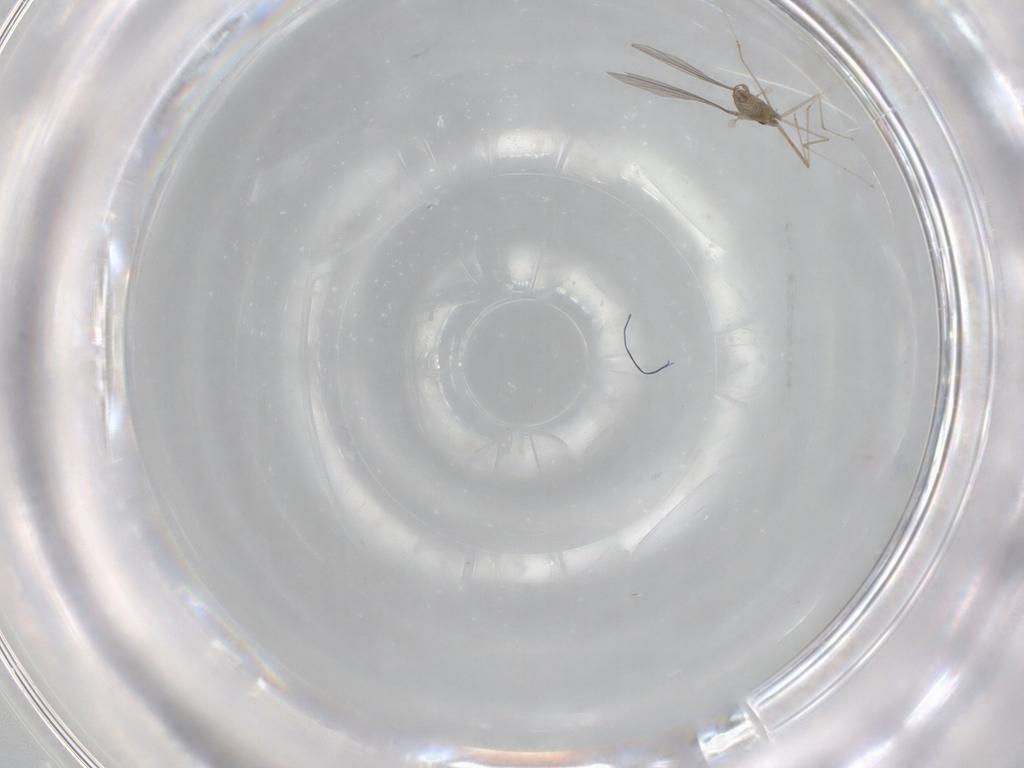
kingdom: Animalia
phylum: Arthropoda
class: Insecta
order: Diptera
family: Cecidomyiidae
